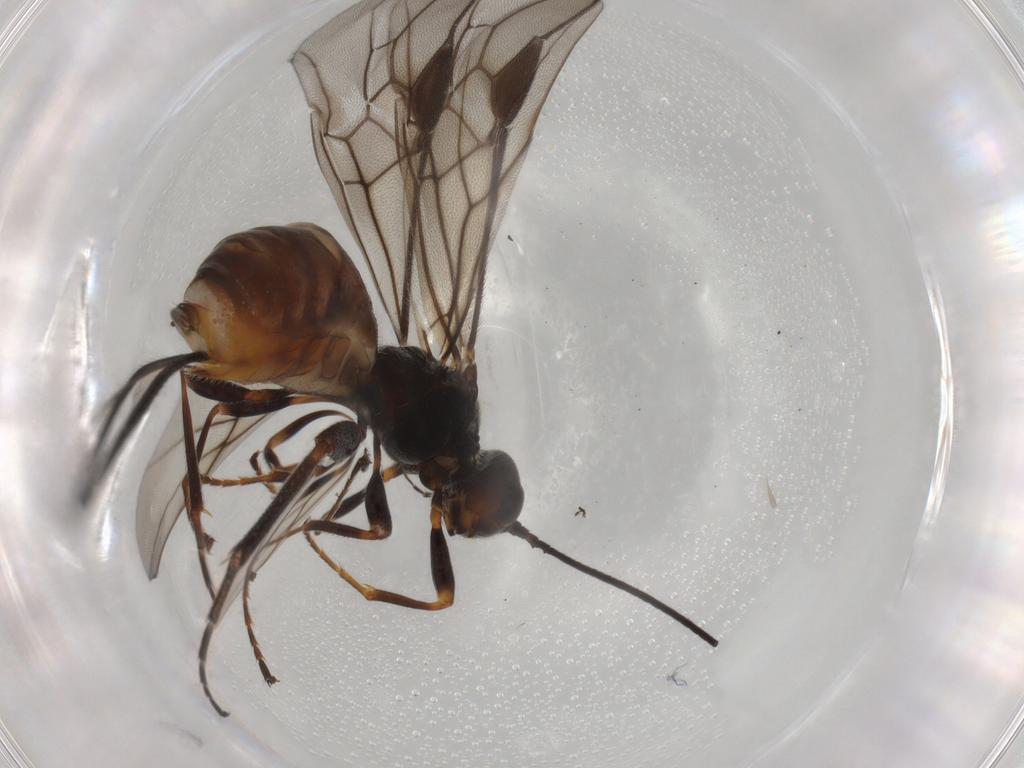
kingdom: Animalia
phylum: Arthropoda
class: Insecta
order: Hymenoptera
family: Braconidae
